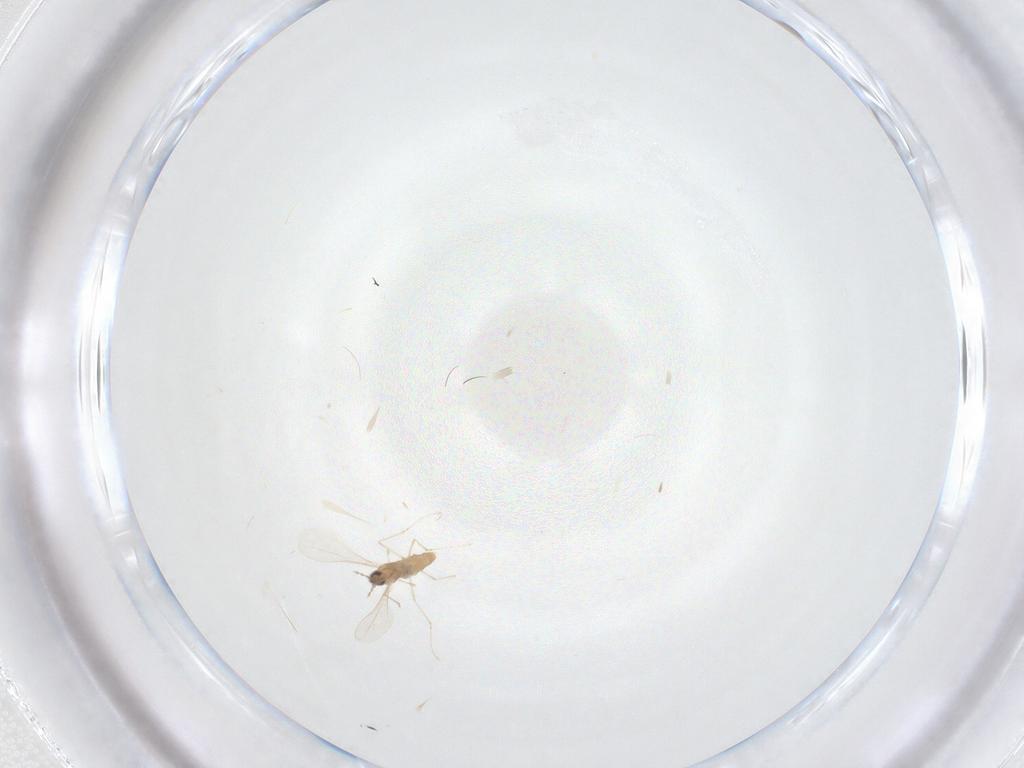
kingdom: Animalia
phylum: Arthropoda
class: Insecta
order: Diptera
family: Cecidomyiidae
